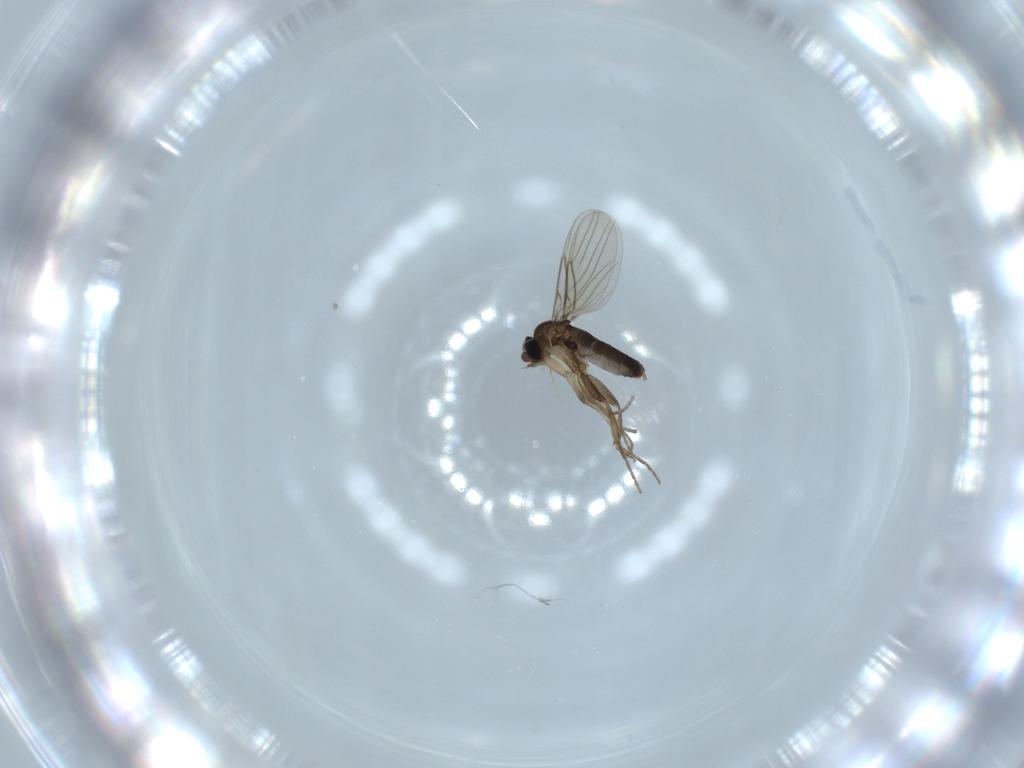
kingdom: Animalia
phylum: Arthropoda
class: Insecta
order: Diptera
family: Phoridae
